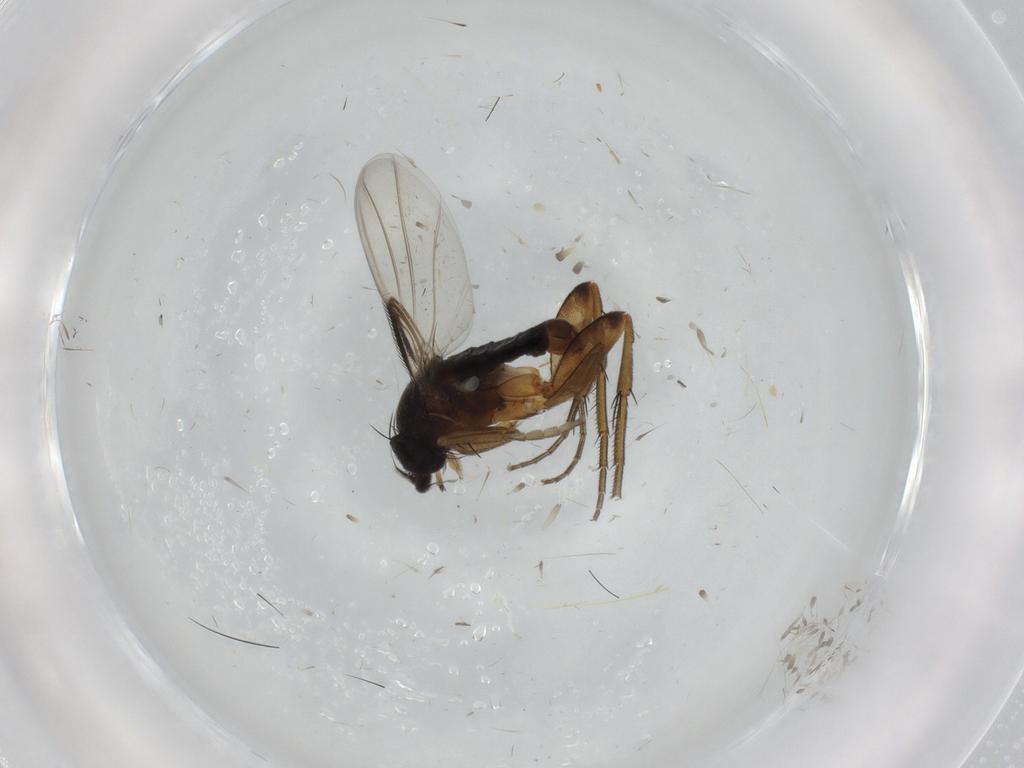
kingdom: Animalia
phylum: Arthropoda
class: Insecta
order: Diptera
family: Phoridae
